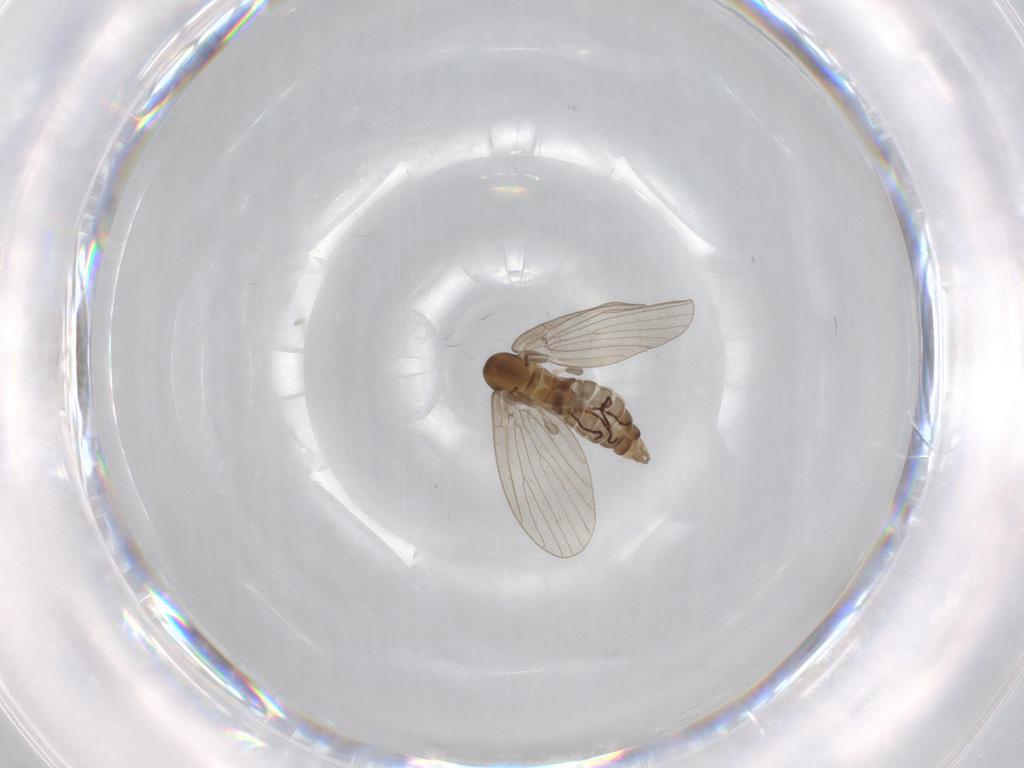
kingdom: Animalia
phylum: Arthropoda
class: Insecta
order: Diptera
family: Psychodidae
